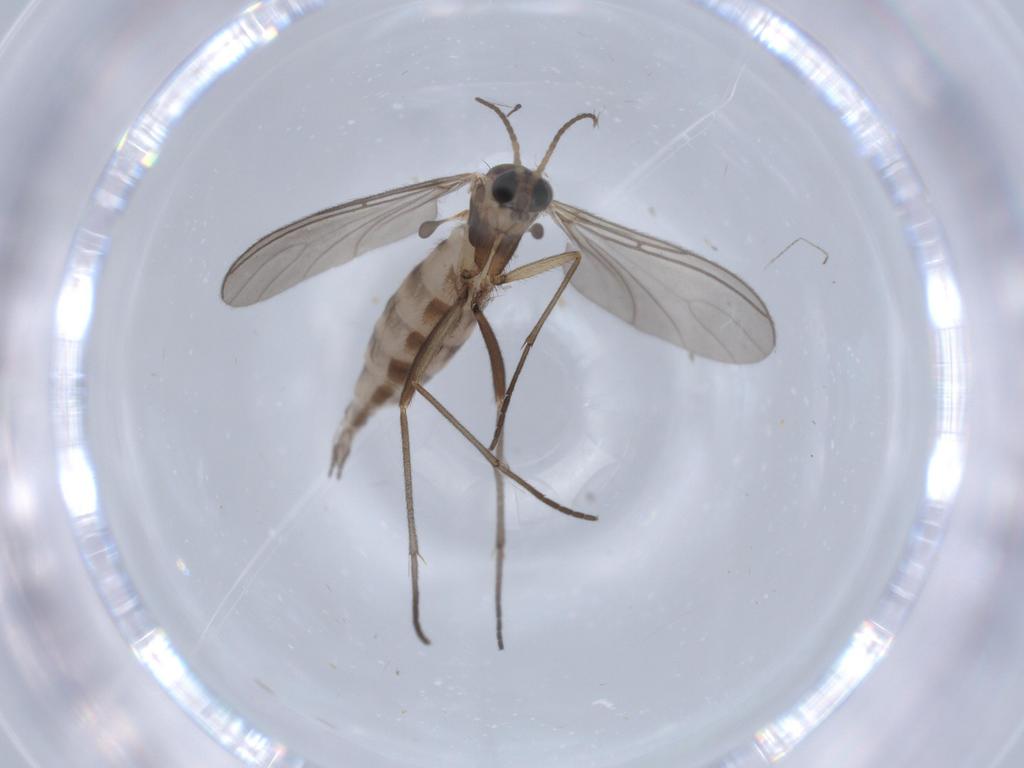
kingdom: Animalia
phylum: Arthropoda
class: Insecta
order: Diptera
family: Sciaridae
